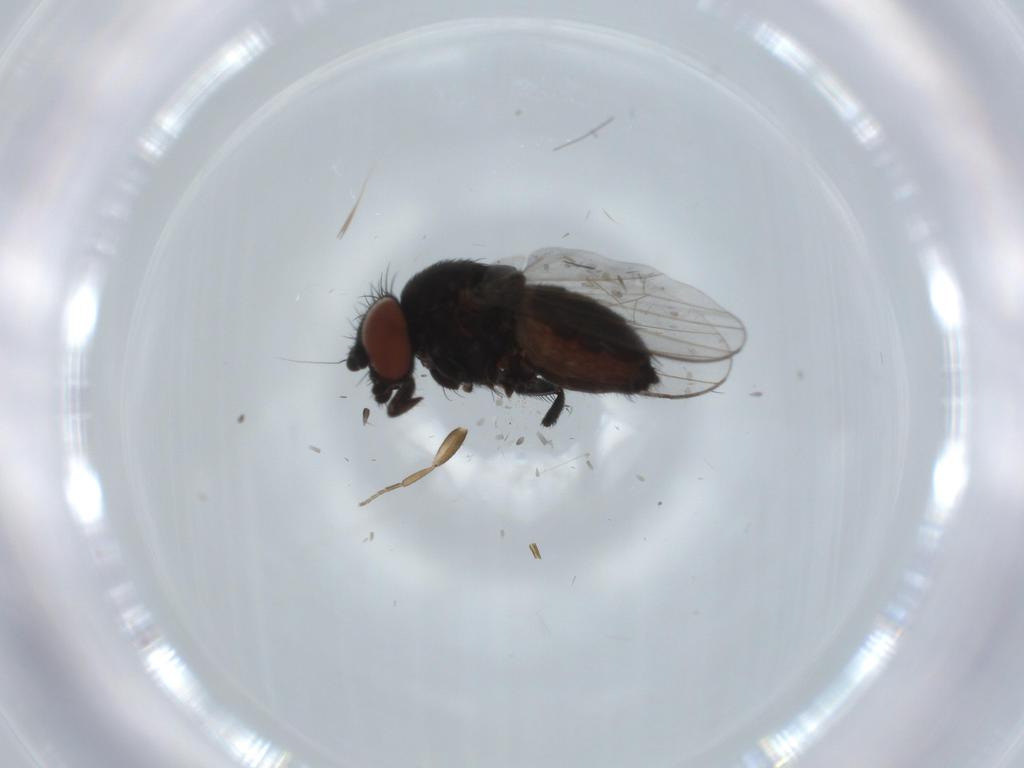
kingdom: Animalia
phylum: Arthropoda
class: Insecta
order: Diptera
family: Milichiidae
